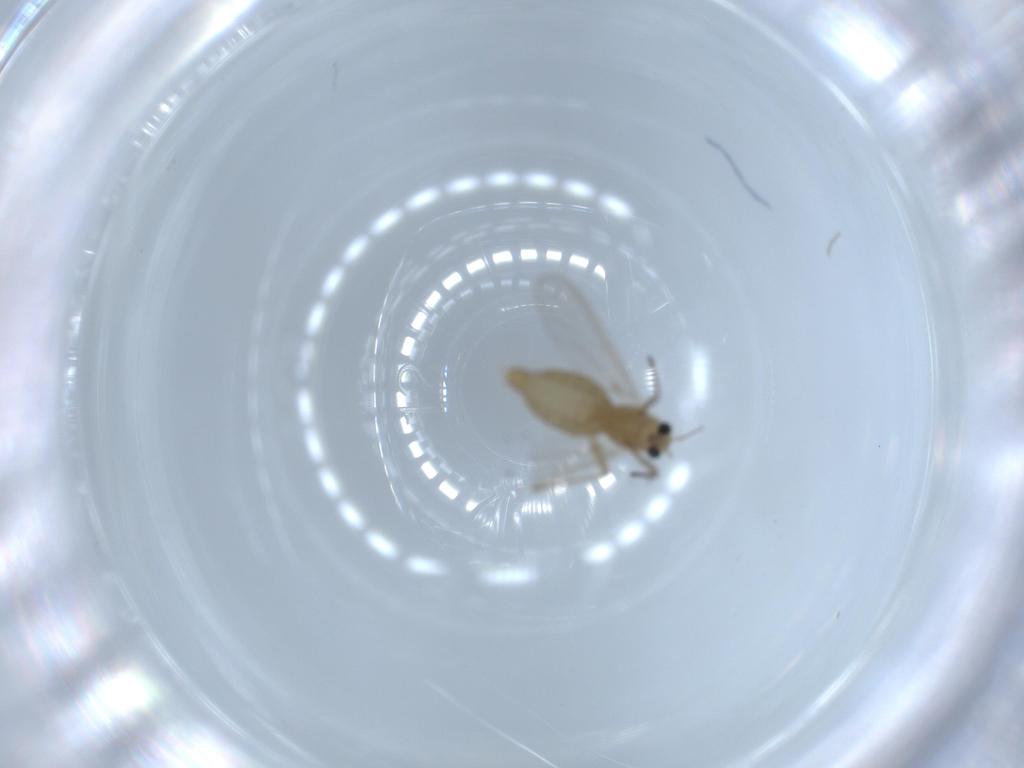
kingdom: Animalia
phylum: Arthropoda
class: Insecta
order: Diptera
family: Chironomidae
